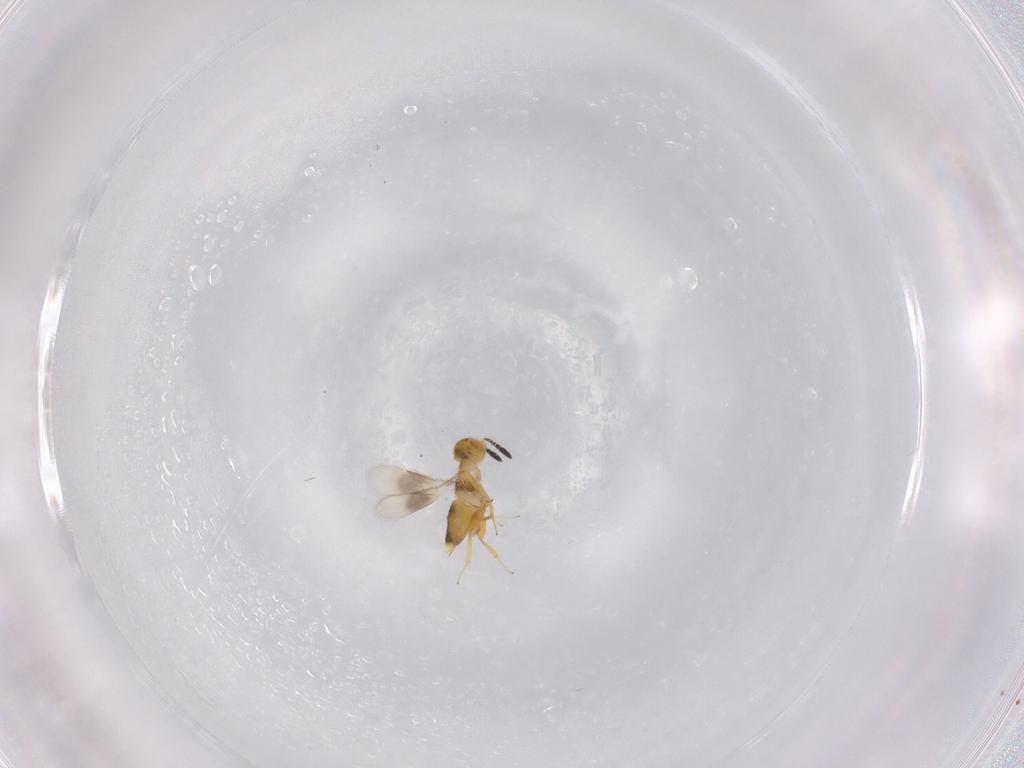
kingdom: Animalia
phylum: Arthropoda
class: Insecta
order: Hymenoptera
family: Encyrtidae
